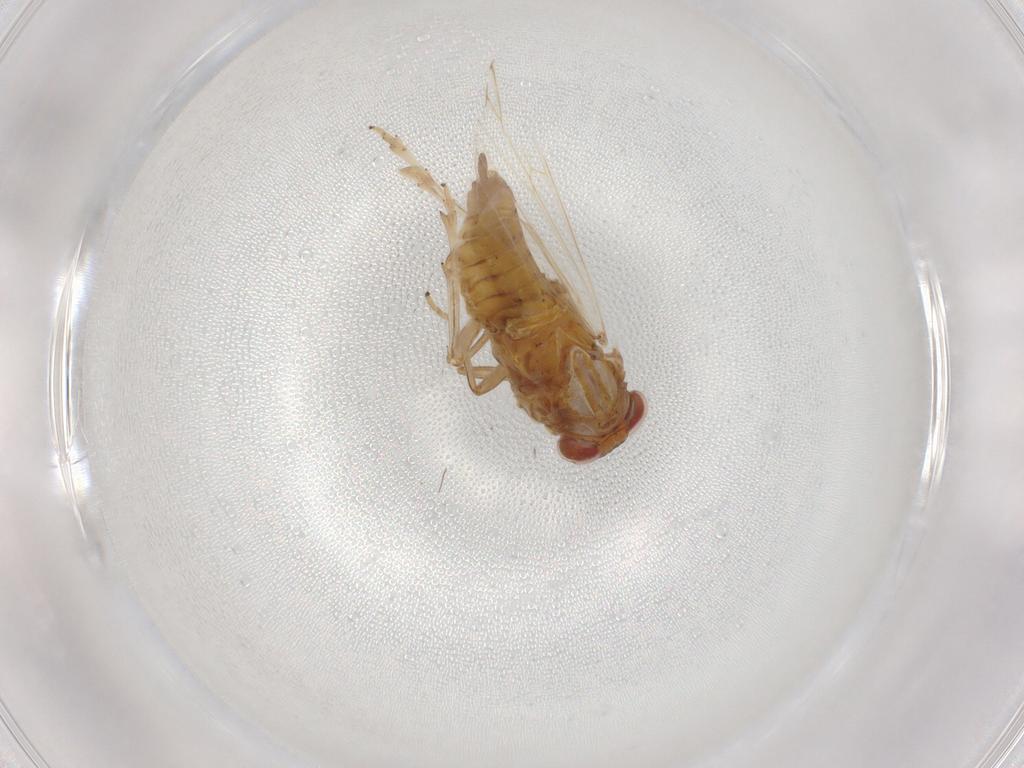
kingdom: Animalia
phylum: Arthropoda
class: Insecta
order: Hemiptera
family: Delphacidae
